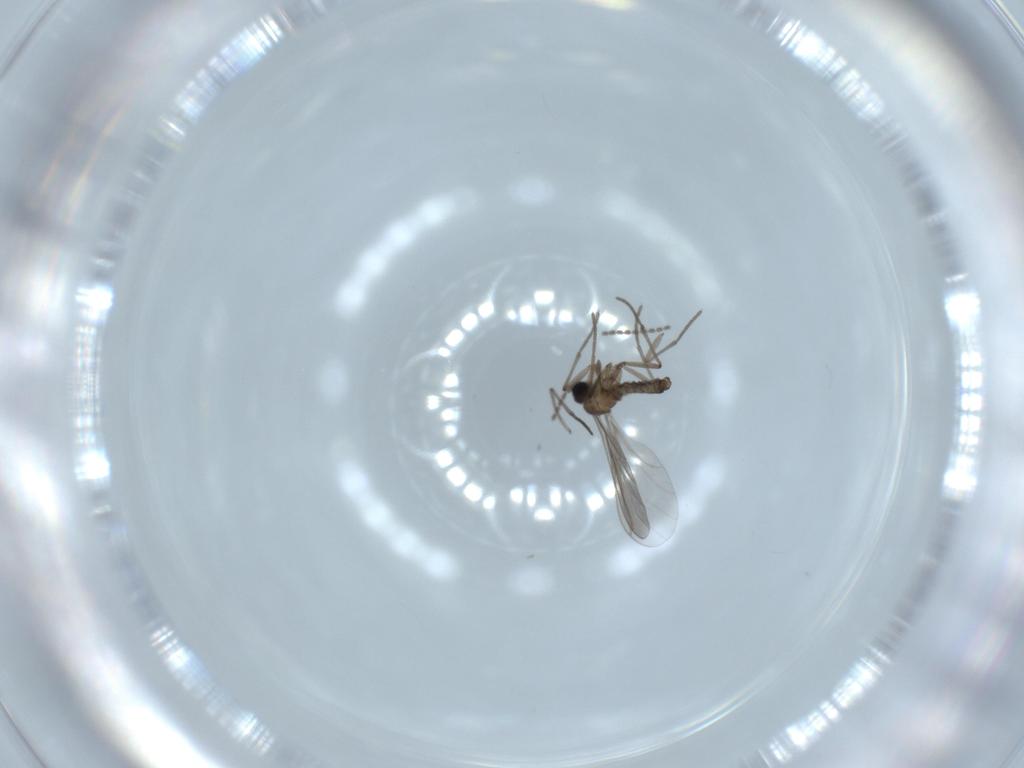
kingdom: Animalia
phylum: Arthropoda
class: Insecta
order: Diptera
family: Sciaridae
